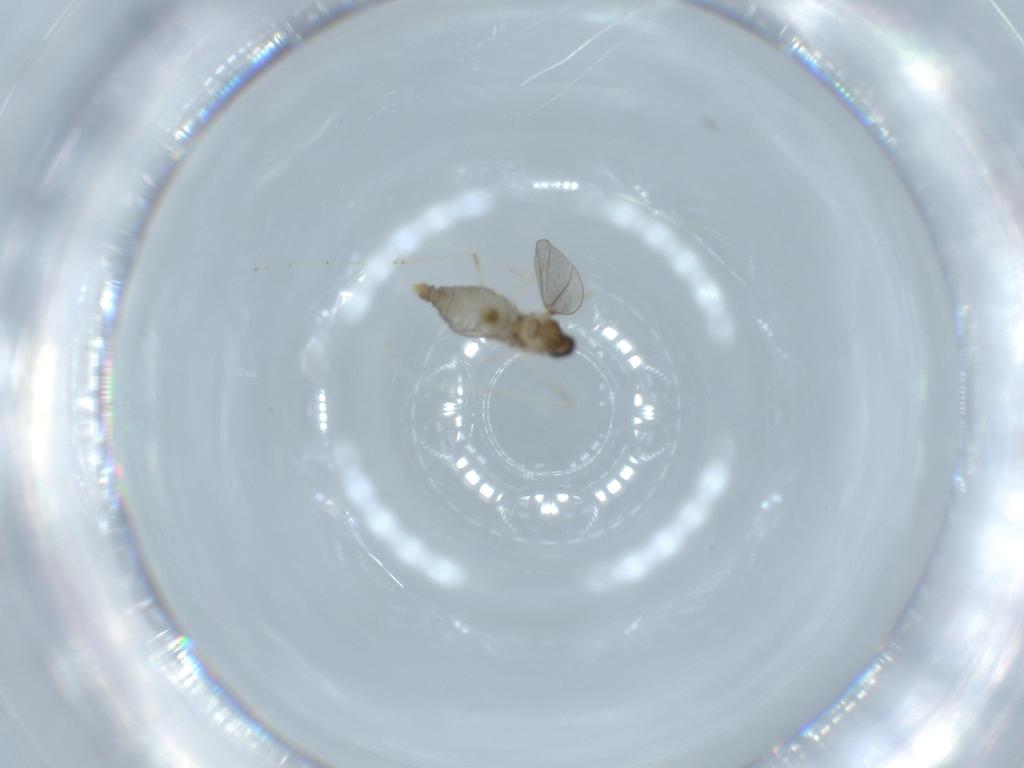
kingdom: Animalia
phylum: Arthropoda
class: Insecta
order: Diptera
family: Cecidomyiidae
